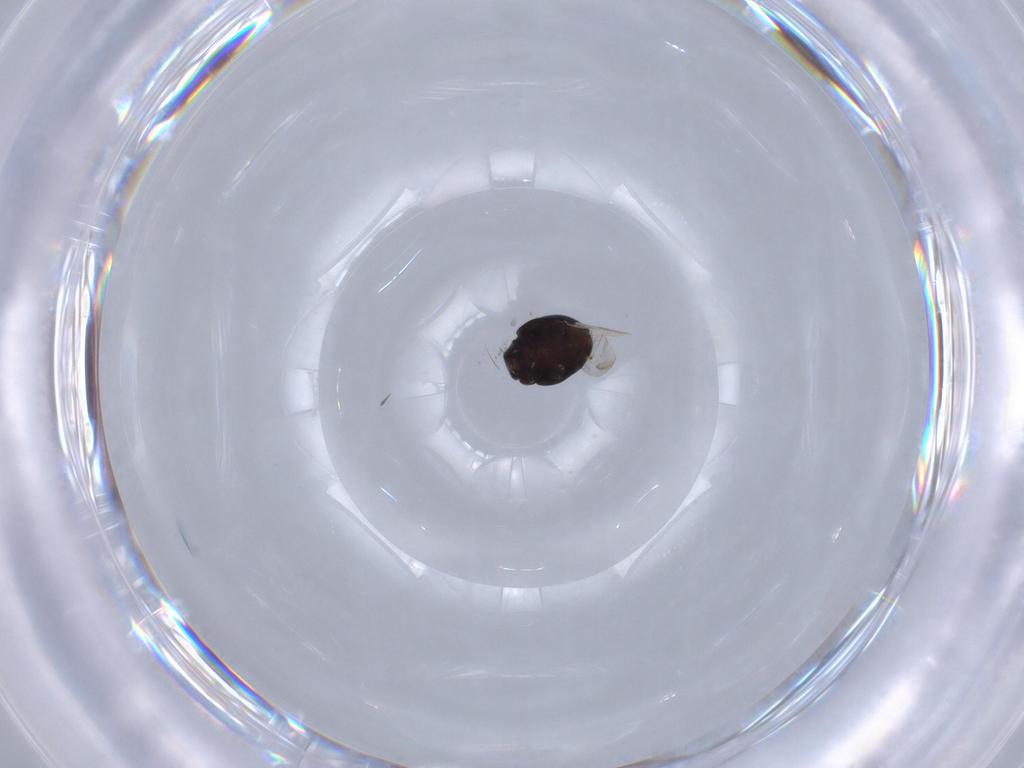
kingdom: Animalia
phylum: Arthropoda
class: Insecta
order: Coleoptera
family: Coccinellidae
